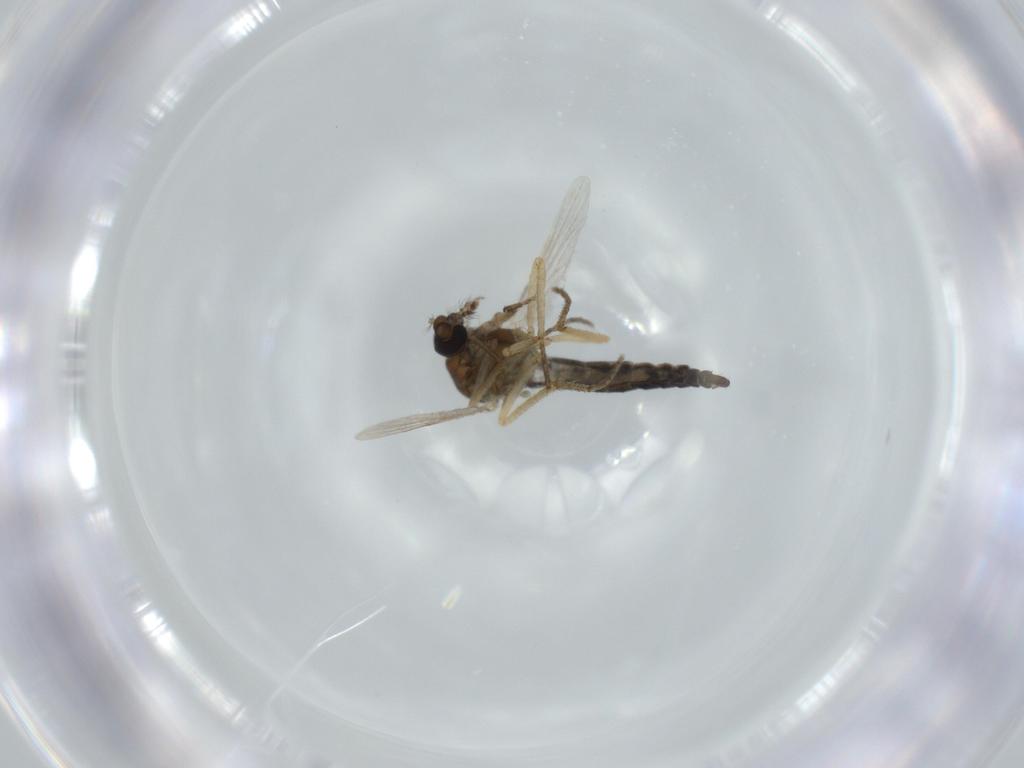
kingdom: Animalia
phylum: Arthropoda
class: Insecta
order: Diptera
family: Ceratopogonidae
